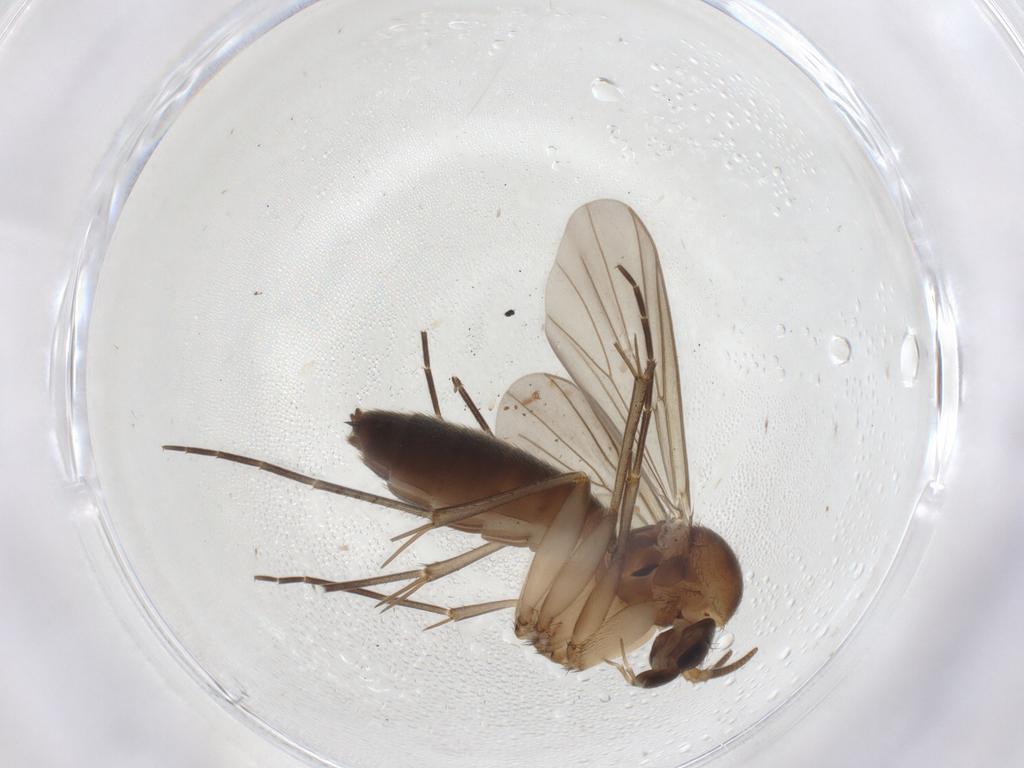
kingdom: Animalia
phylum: Arthropoda
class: Insecta
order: Diptera
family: Mycetophilidae
